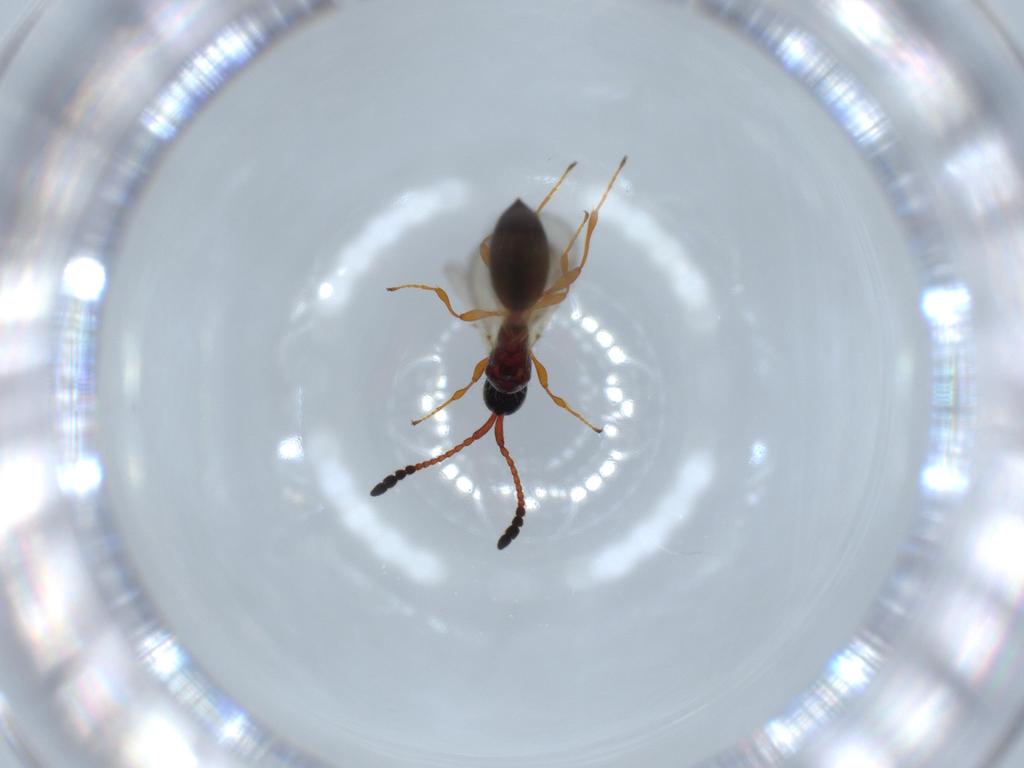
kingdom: Animalia
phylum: Arthropoda
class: Insecta
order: Hymenoptera
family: Diapriidae
